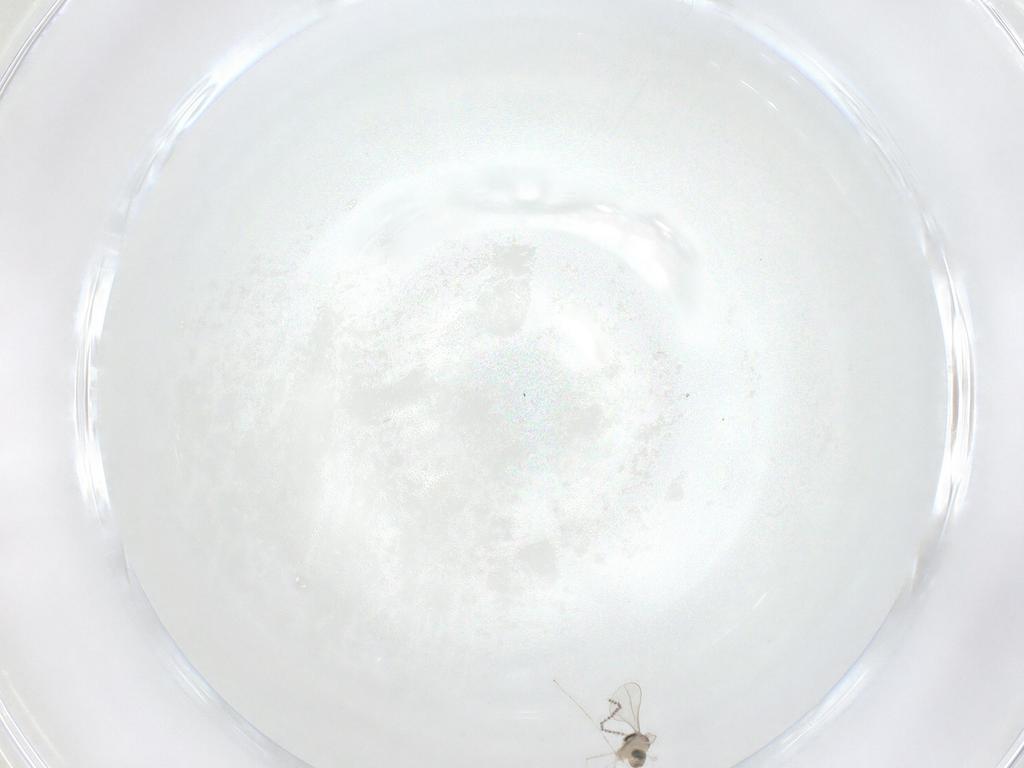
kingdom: Animalia
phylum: Arthropoda
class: Insecta
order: Diptera
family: Cecidomyiidae
